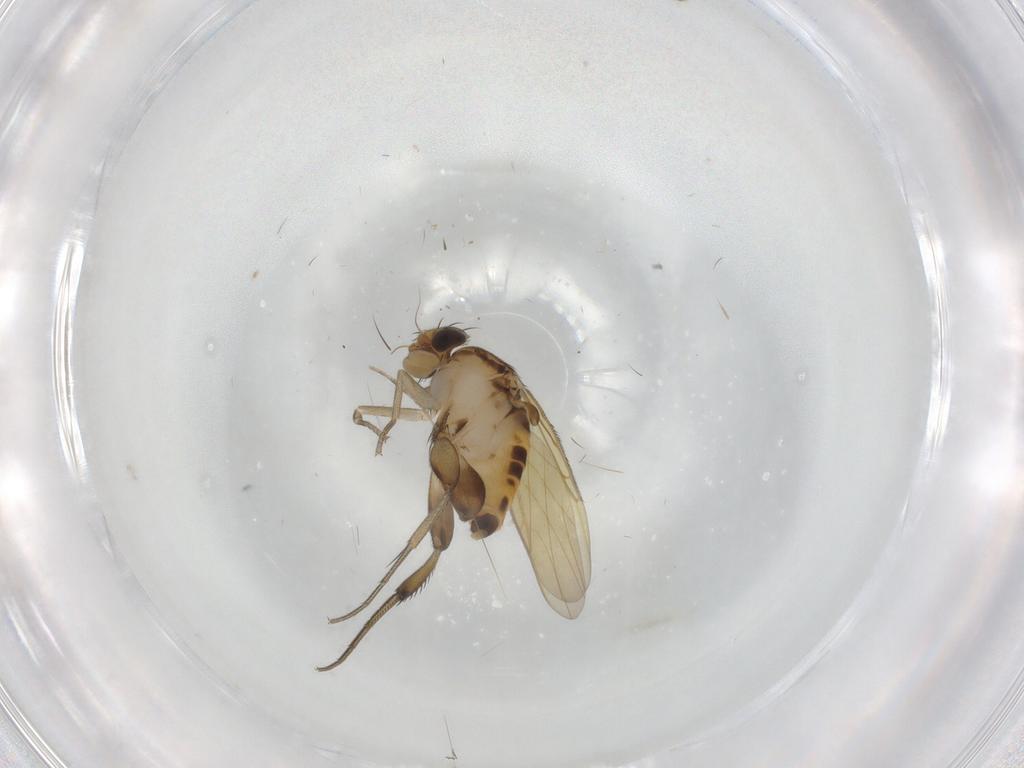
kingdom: Animalia
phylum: Arthropoda
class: Insecta
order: Diptera
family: Phoridae
